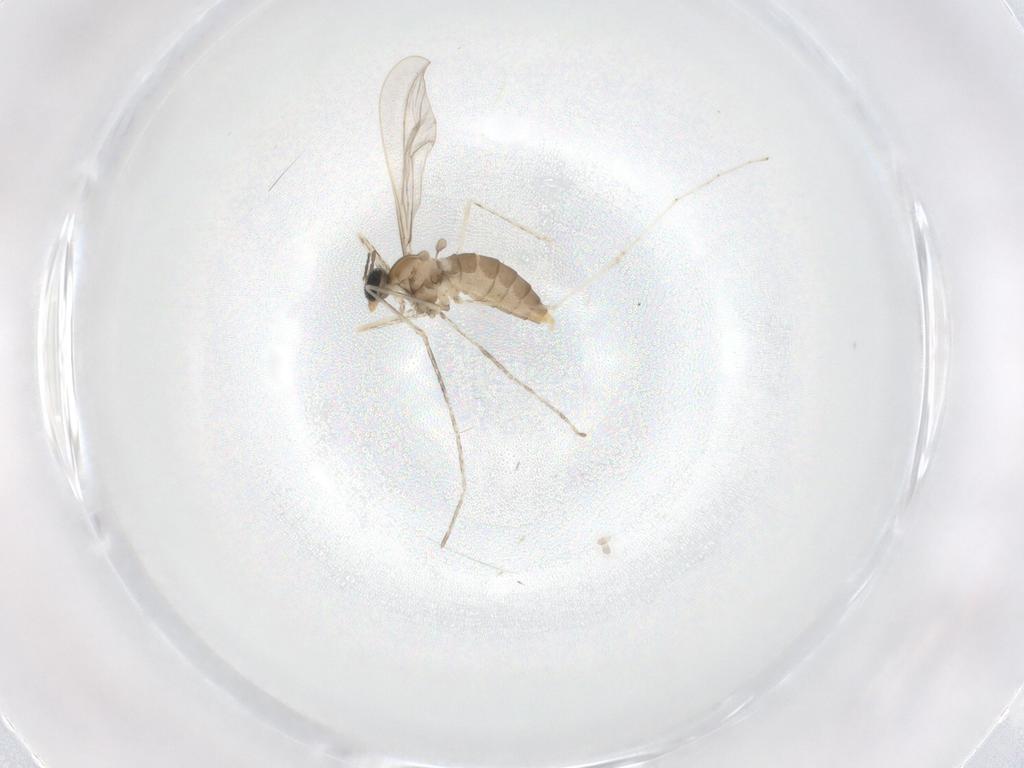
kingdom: Animalia
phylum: Arthropoda
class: Insecta
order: Diptera
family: Cecidomyiidae
